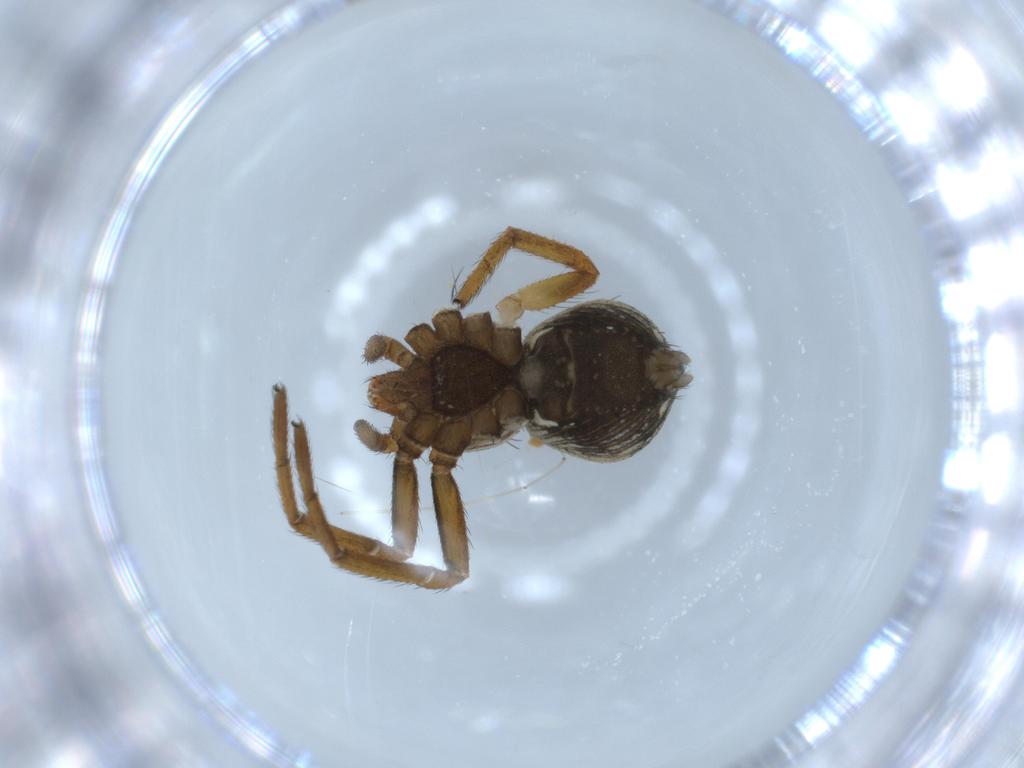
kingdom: Animalia
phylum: Arthropoda
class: Arachnida
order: Araneae
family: Thomisidae
